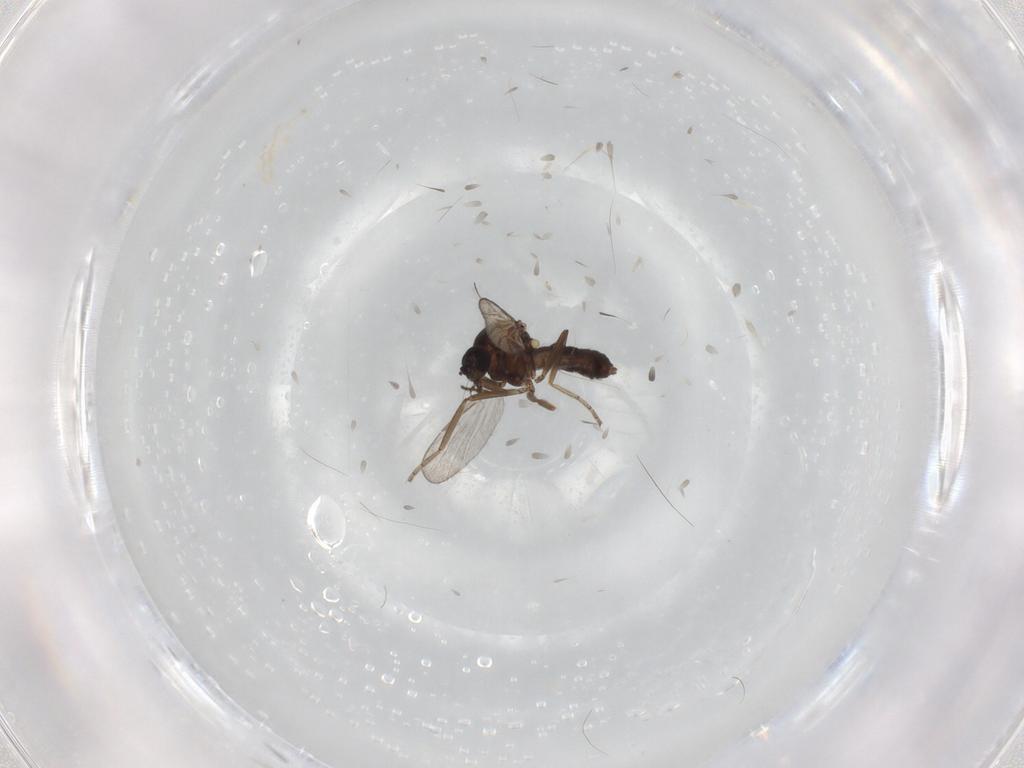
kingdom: Animalia
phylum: Arthropoda
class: Insecta
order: Diptera
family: Ceratopogonidae
